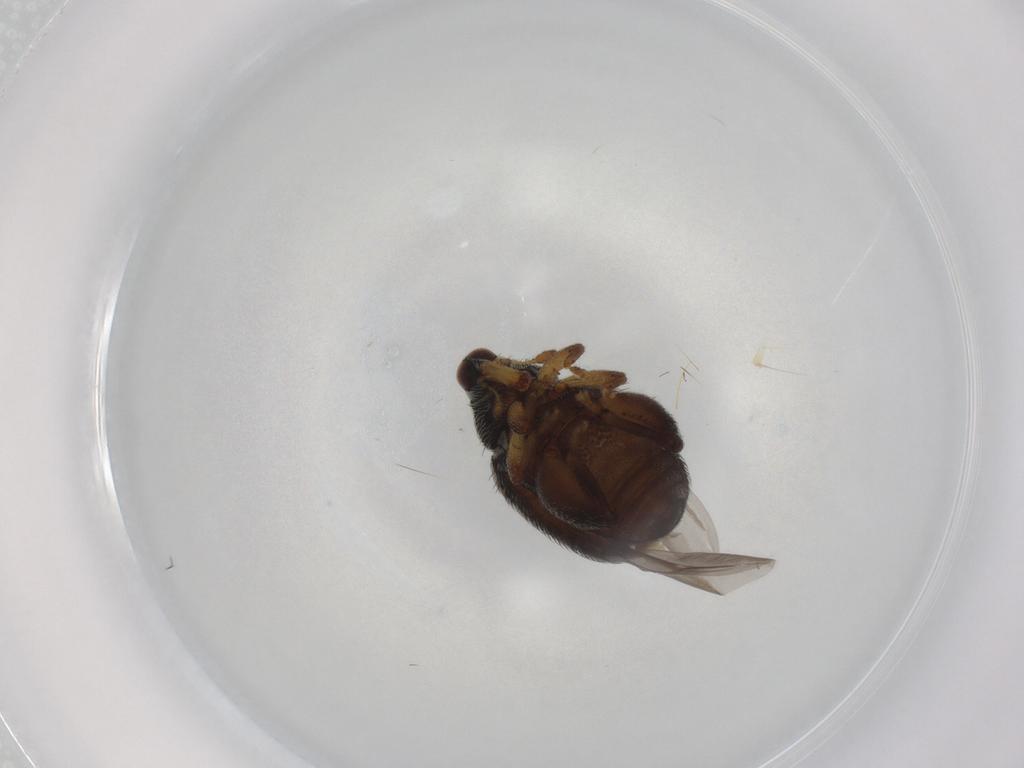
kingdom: Animalia
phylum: Arthropoda
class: Insecta
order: Coleoptera
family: Curculionidae
